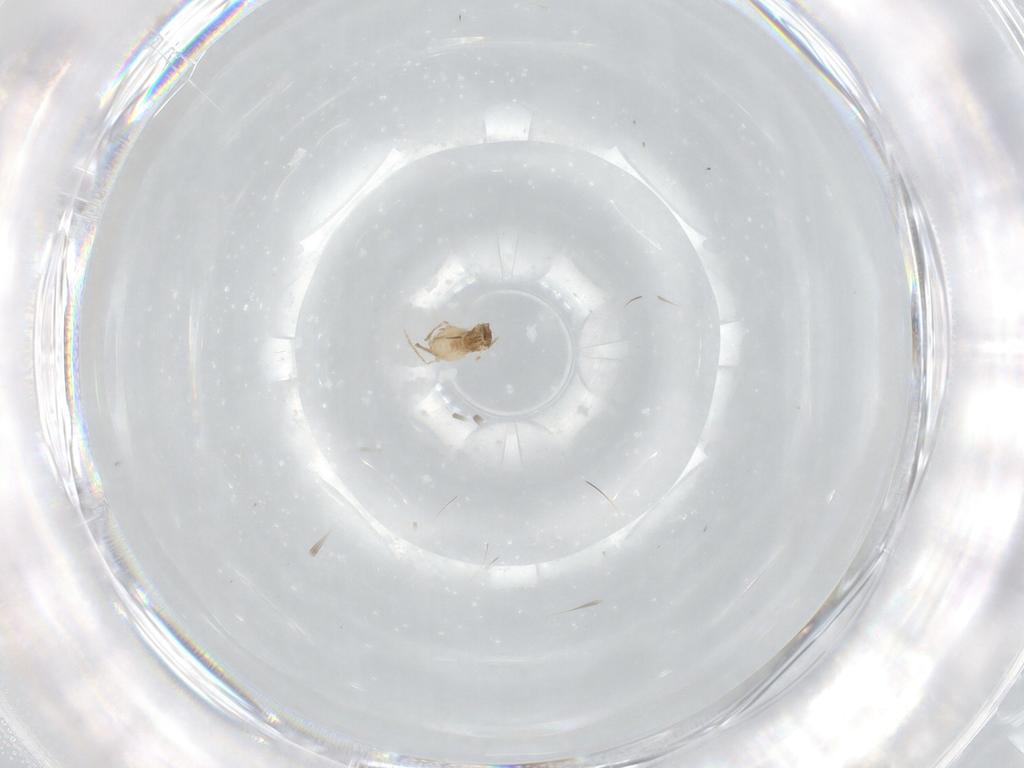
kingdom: Animalia
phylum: Arthropoda
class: Insecta
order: Diptera
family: Cecidomyiidae
